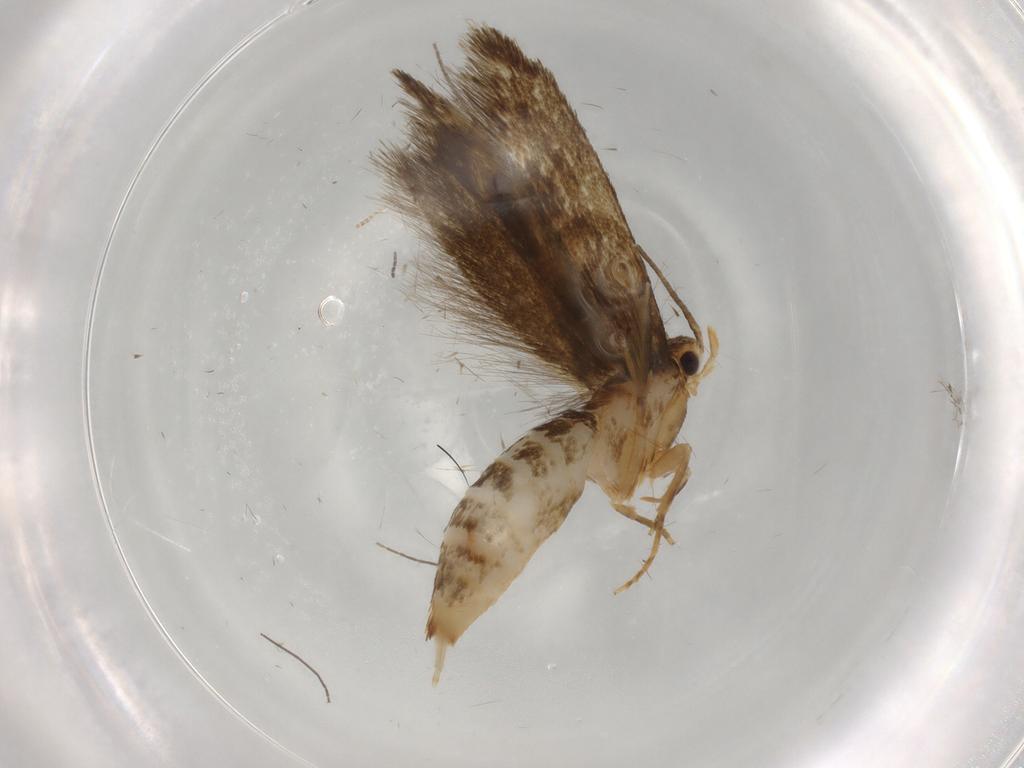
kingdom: Animalia
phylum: Arthropoda
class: Insecta
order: Lepidoptera
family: Tineidae
